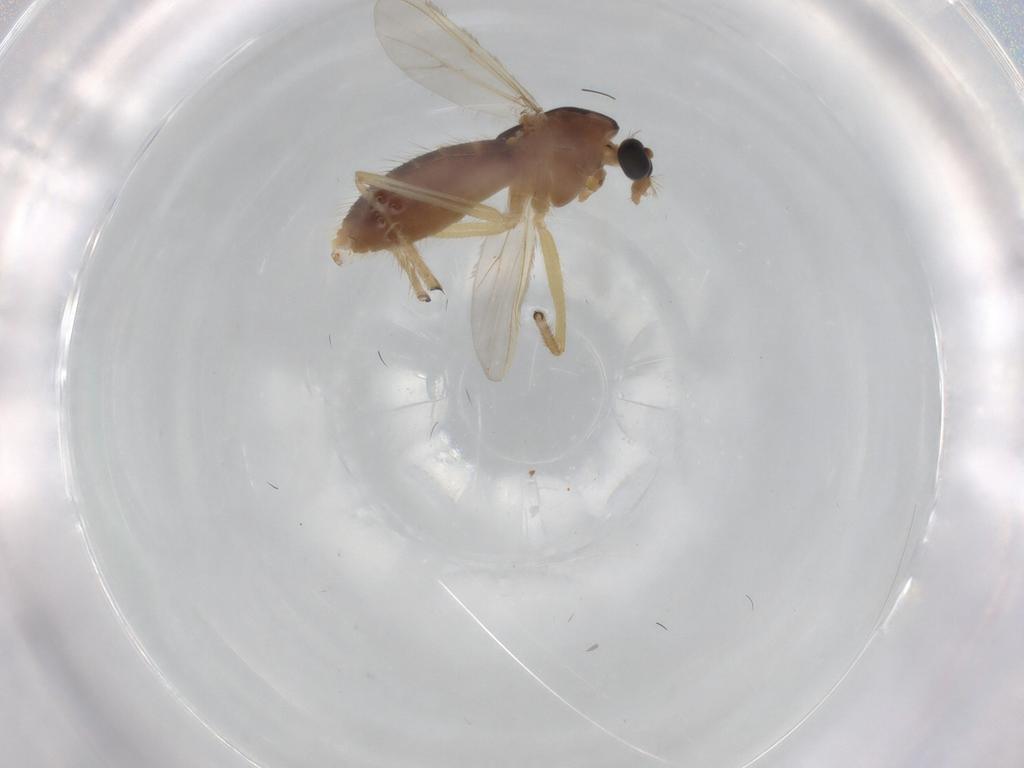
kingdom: Animalia
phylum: Arthropoda
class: Insecta
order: Diptera
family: Chironomidae
